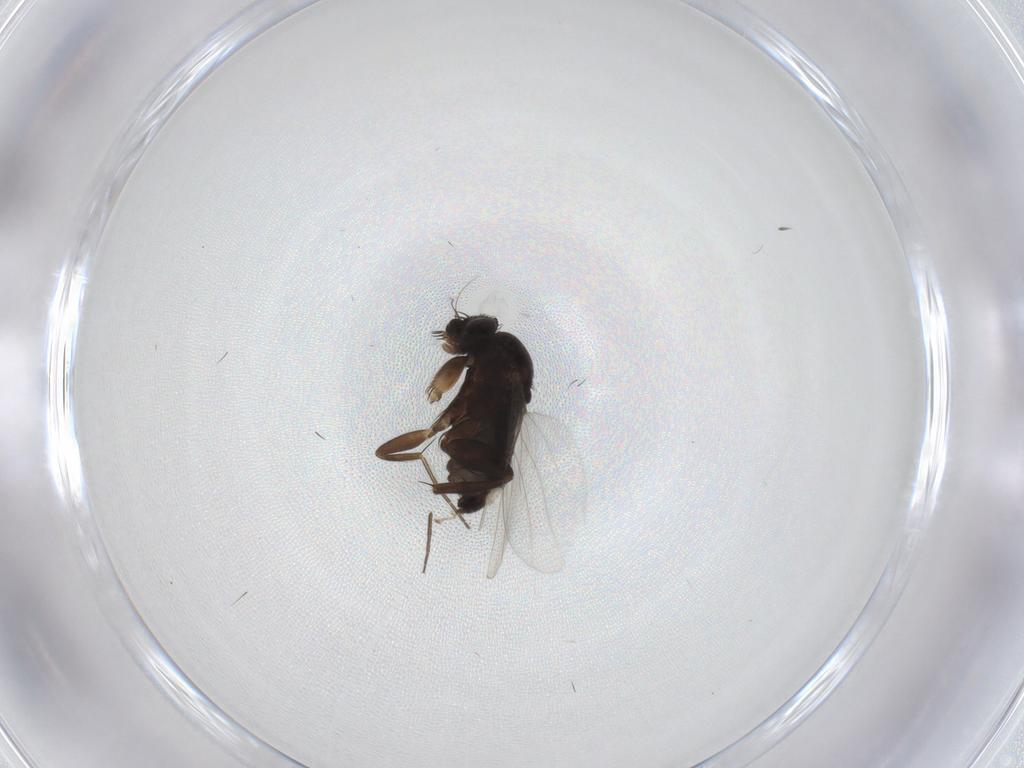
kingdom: Animalia
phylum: Arthropoda
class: Insecta
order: Diptera
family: Phoridae
